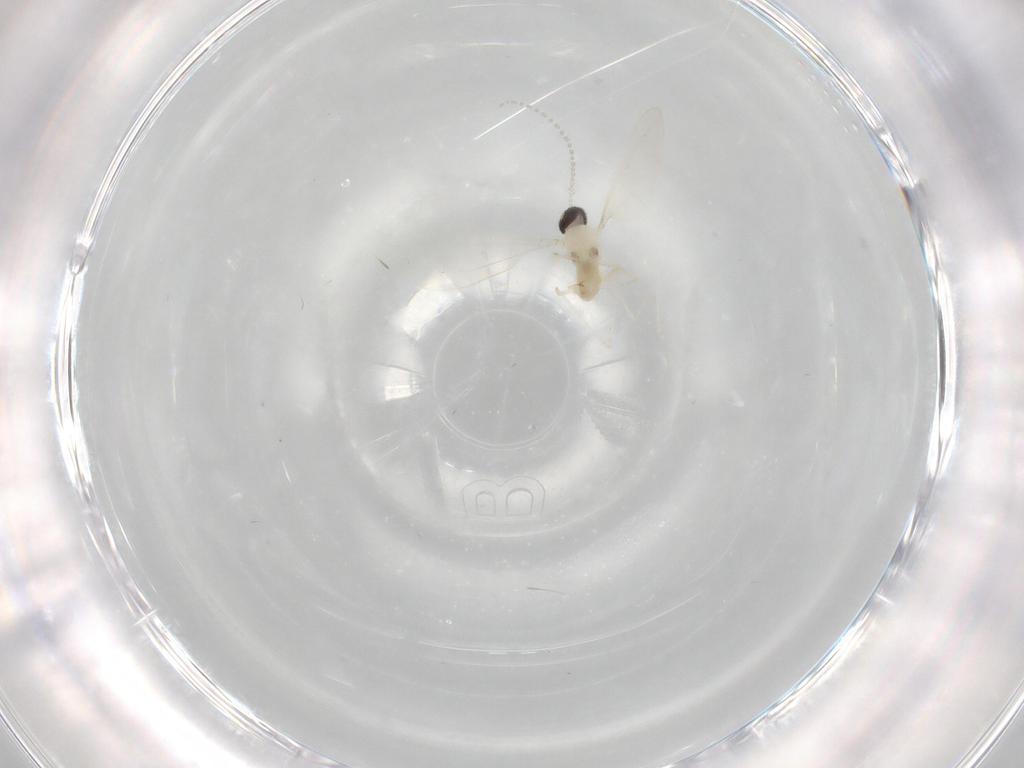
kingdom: Animalia
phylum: Arthropoda
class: Insecta
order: Diptera
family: Cecidomyiidae
